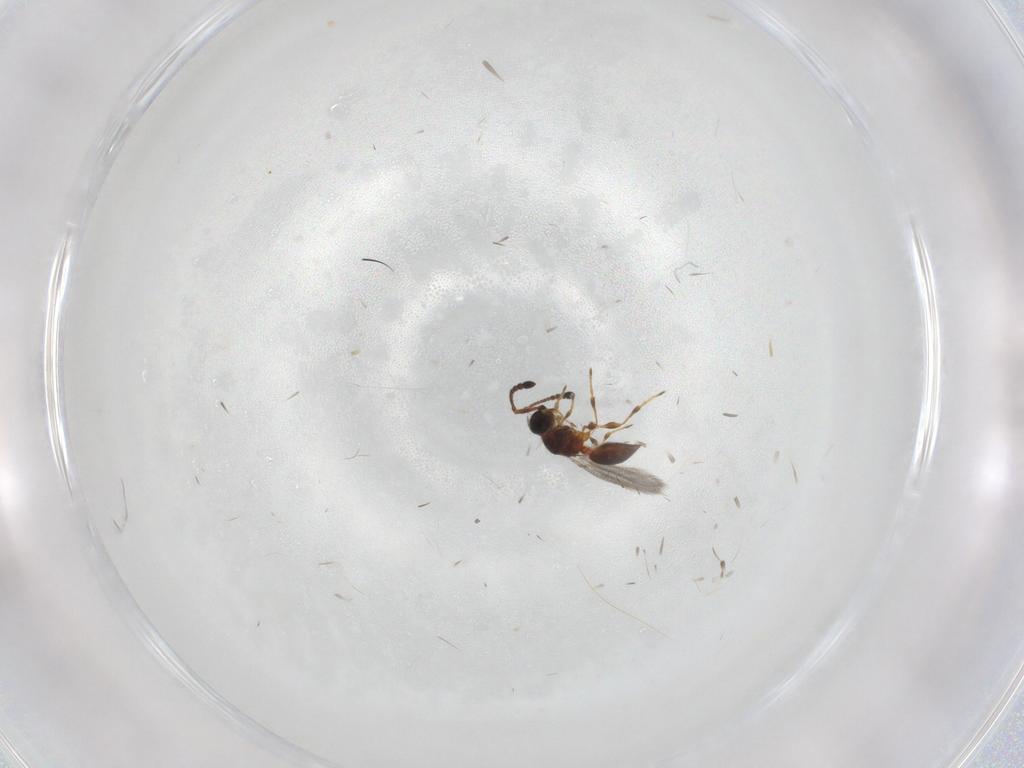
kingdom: Animalia
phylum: Arthropoda
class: Insecta
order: Hymenoptera
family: Diapriidae
